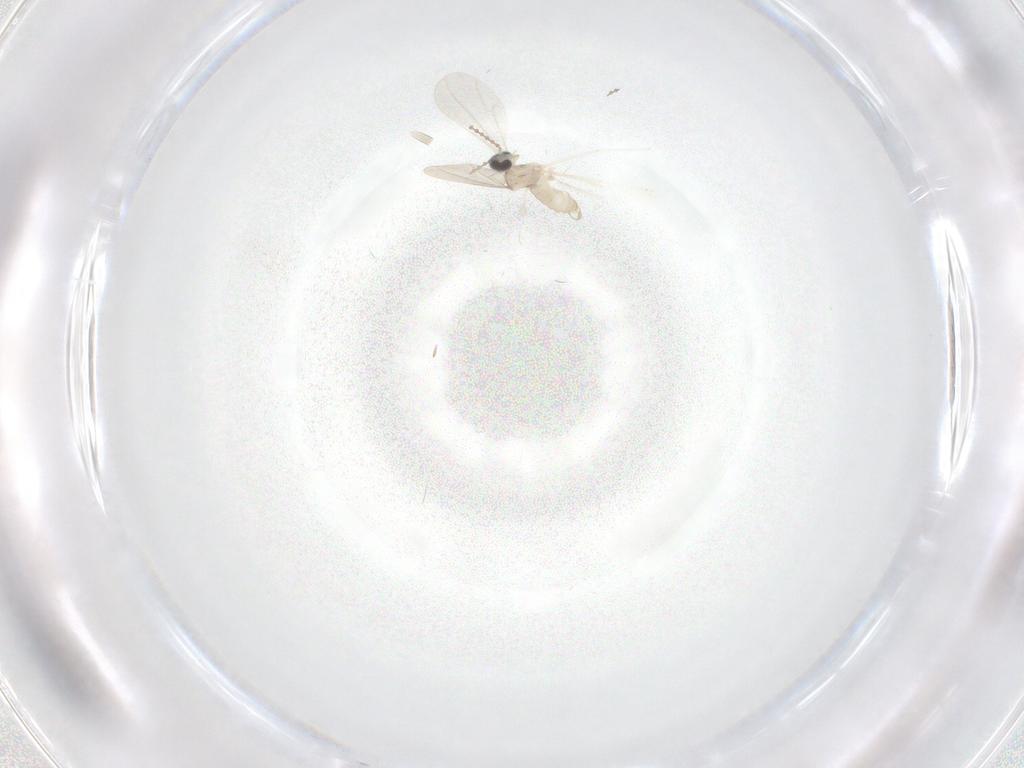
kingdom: Animalia
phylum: Arthropoda
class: Insecta
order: Diptera
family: Cecidomyiidae
